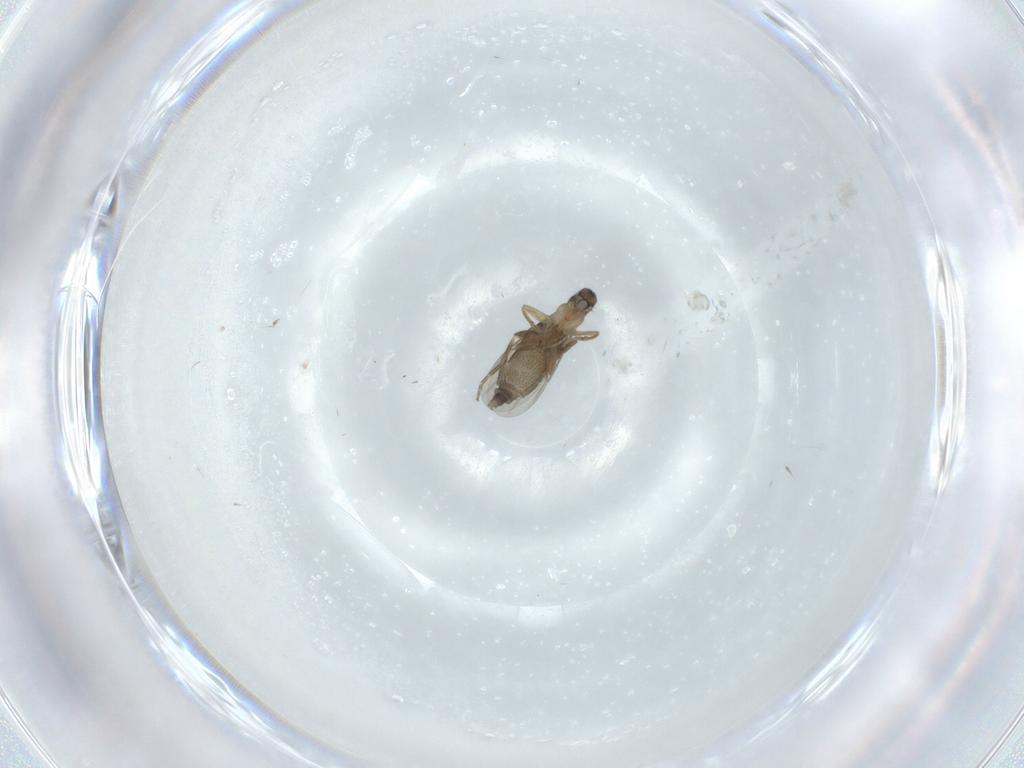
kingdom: Animalia
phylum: Arthropoda
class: Insecta
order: Diptera
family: Phoridae
